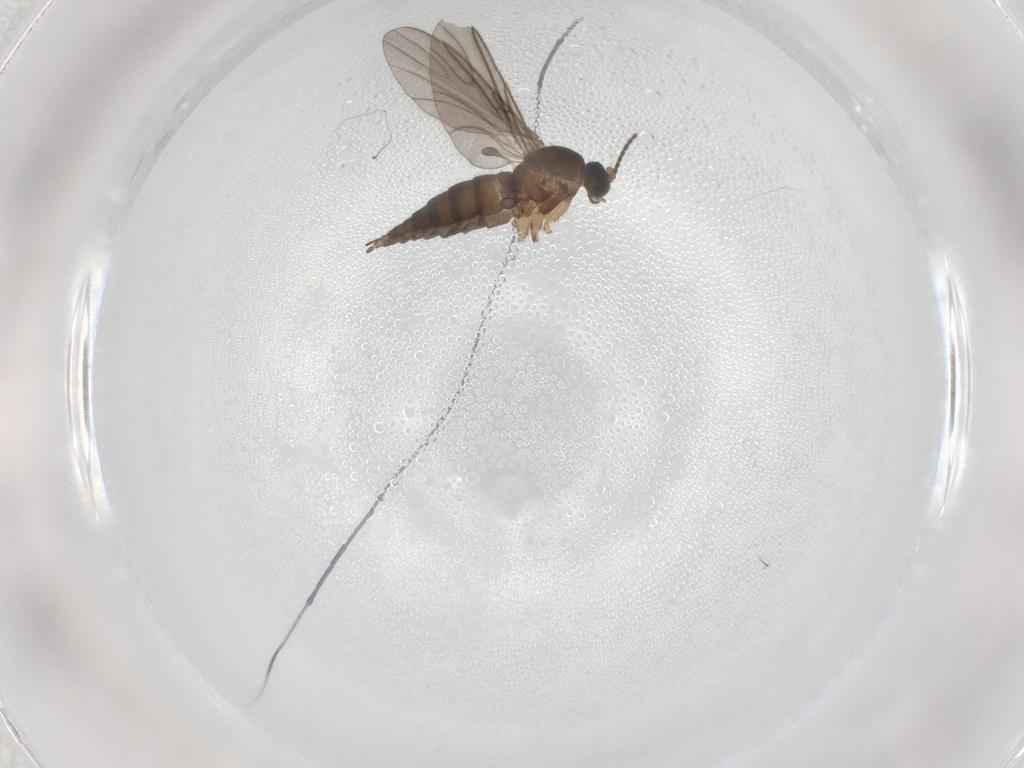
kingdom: Animalia
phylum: Arthropoda
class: Insecta
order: Diptera
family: Sciaridae
